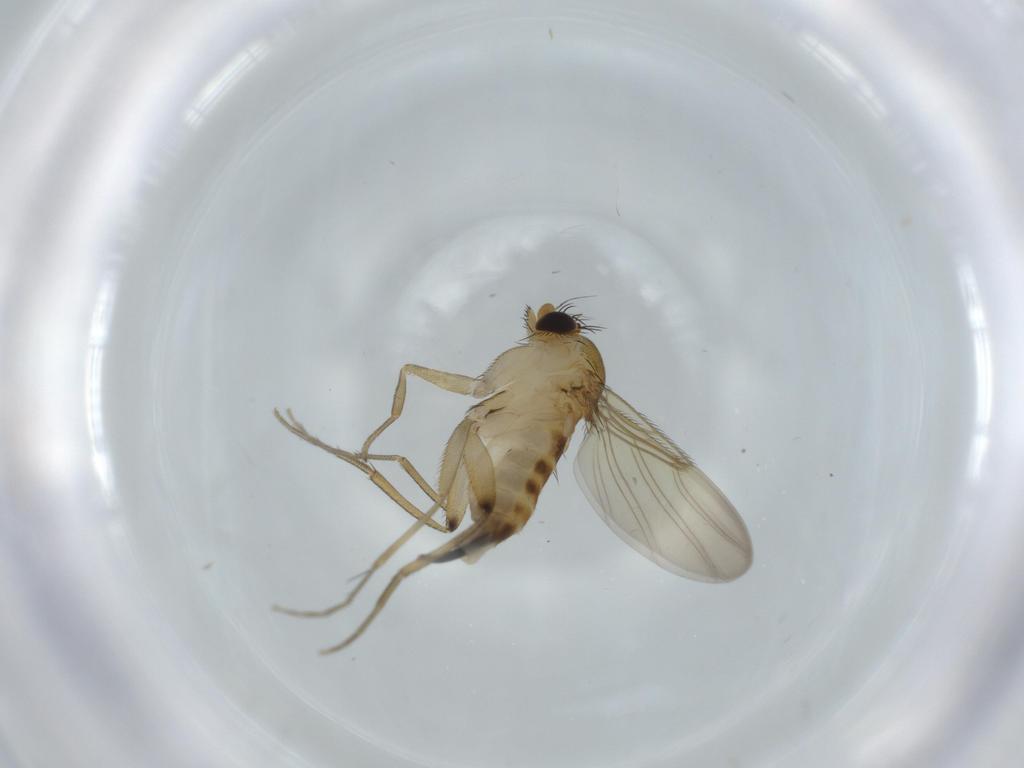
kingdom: Animalia
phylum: Arthropoda
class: Insecta
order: Diptera
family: Phoridae
